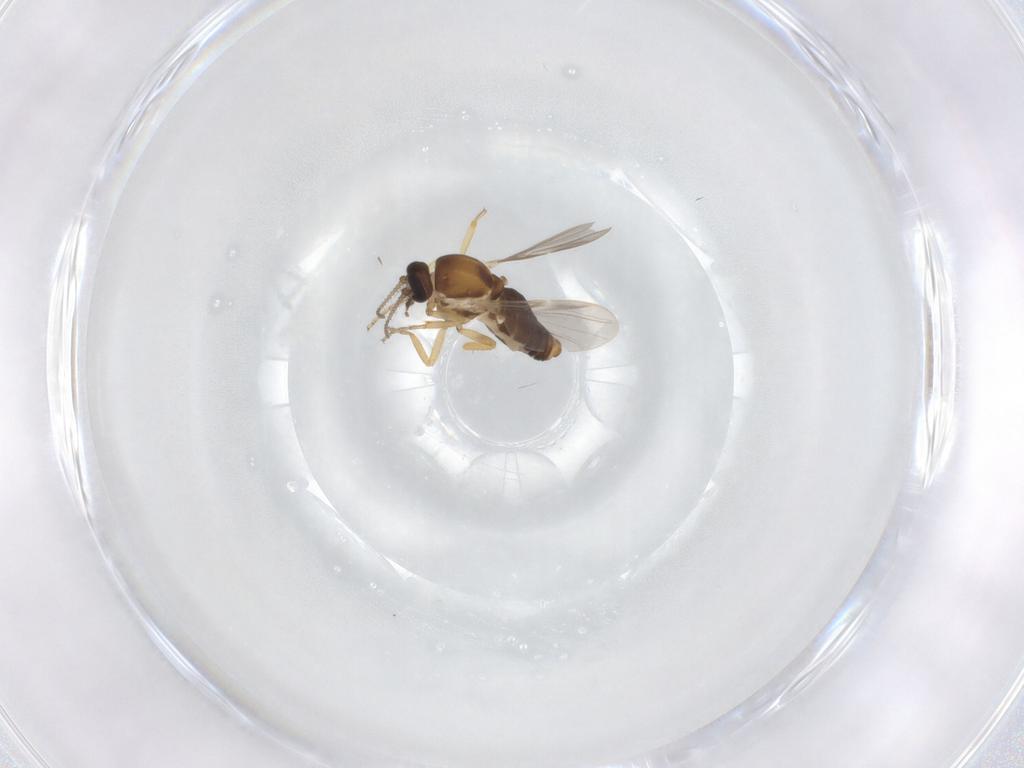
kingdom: Animalia
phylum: Arthropoda
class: Insecta
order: Diptera
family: Ceratopogonidae
